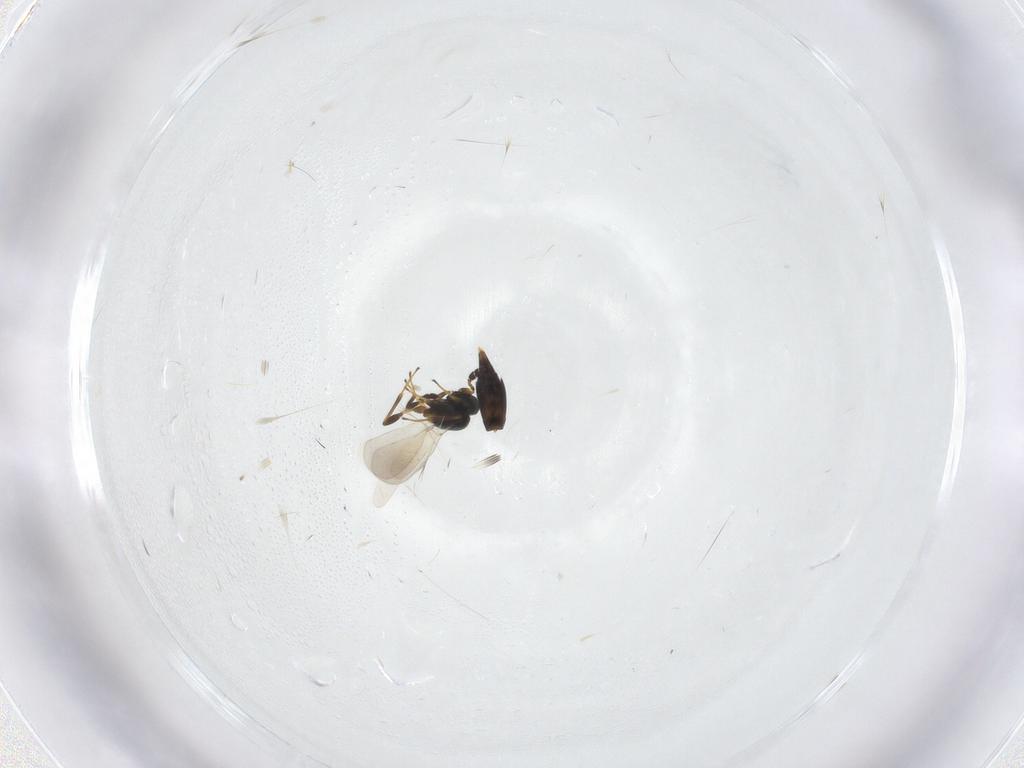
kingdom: Animalia
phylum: Arthropoda
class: Insecta
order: Hymenoptera
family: Platygastridae
